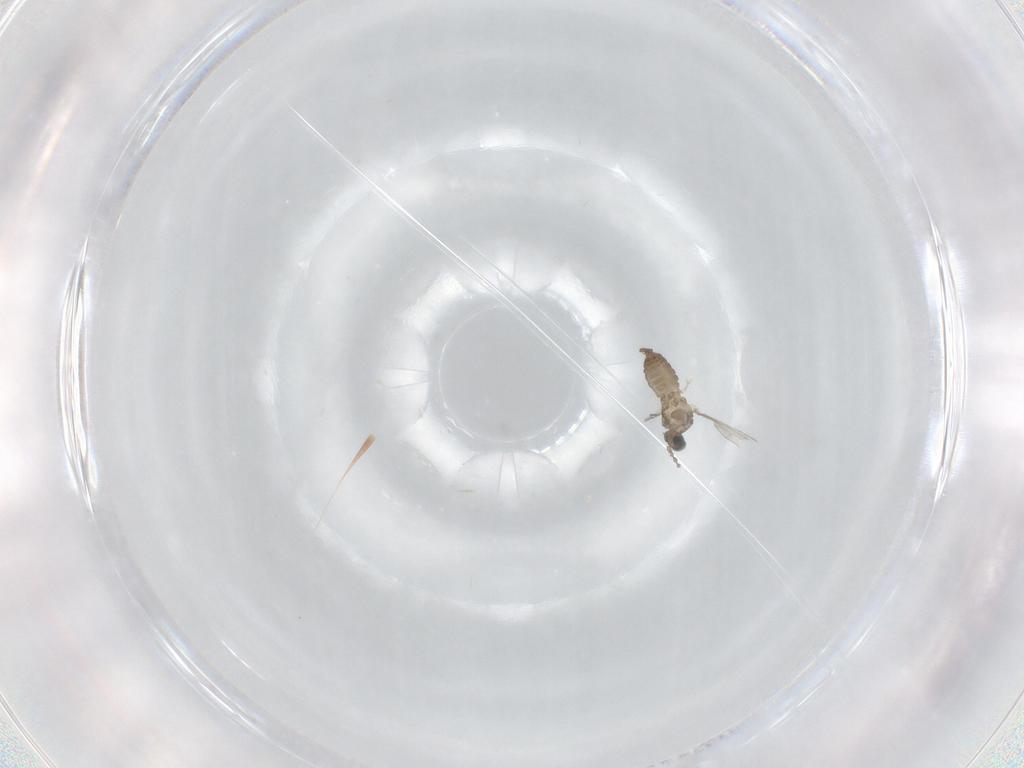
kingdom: Animalia
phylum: Arthropoda
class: Insecta
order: Diptera
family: Cecidomyiidae
